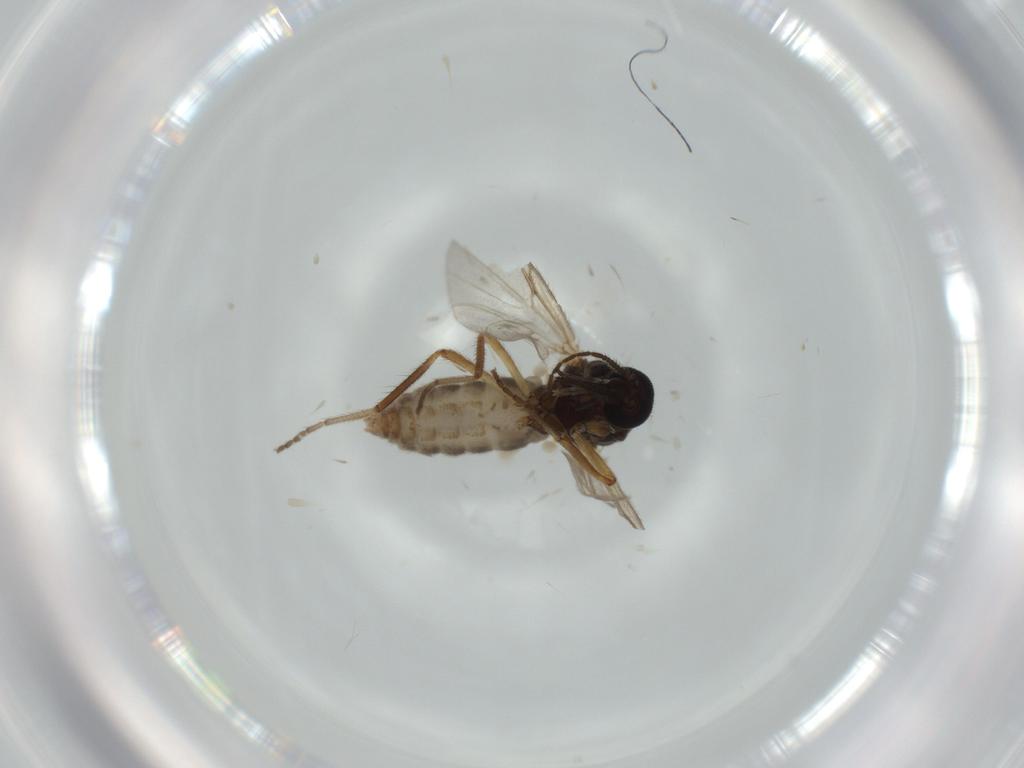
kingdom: Animalia
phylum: Arthropoda
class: Insecta
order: Diptera
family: Ceratopogonidae
